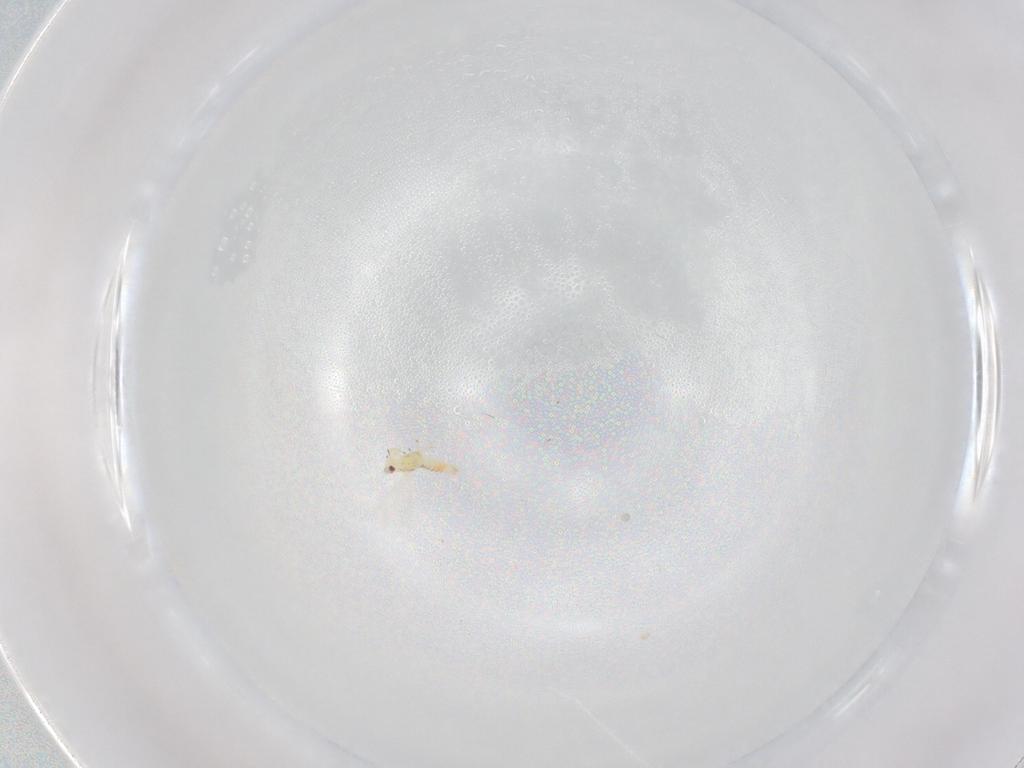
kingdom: Animalia
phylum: Arthropoda
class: Insecta
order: Thysanoptera
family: Thripidae
